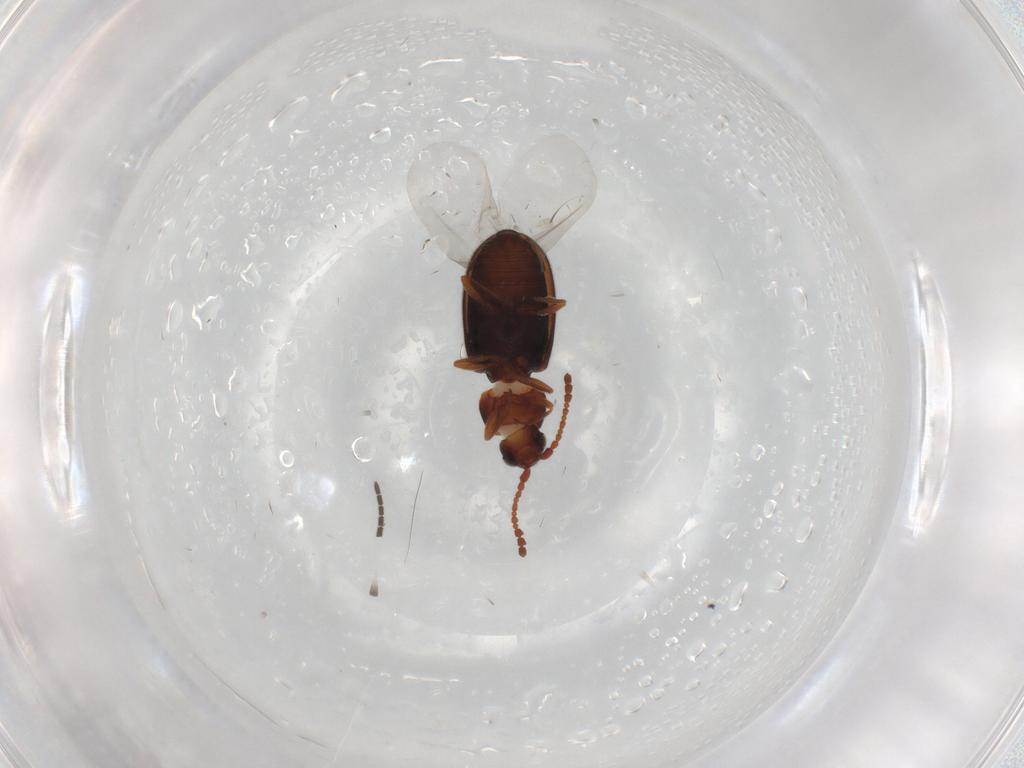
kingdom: Animalia
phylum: Arthropoda
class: Insecta
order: Coleoptera
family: Cryptophagidae
